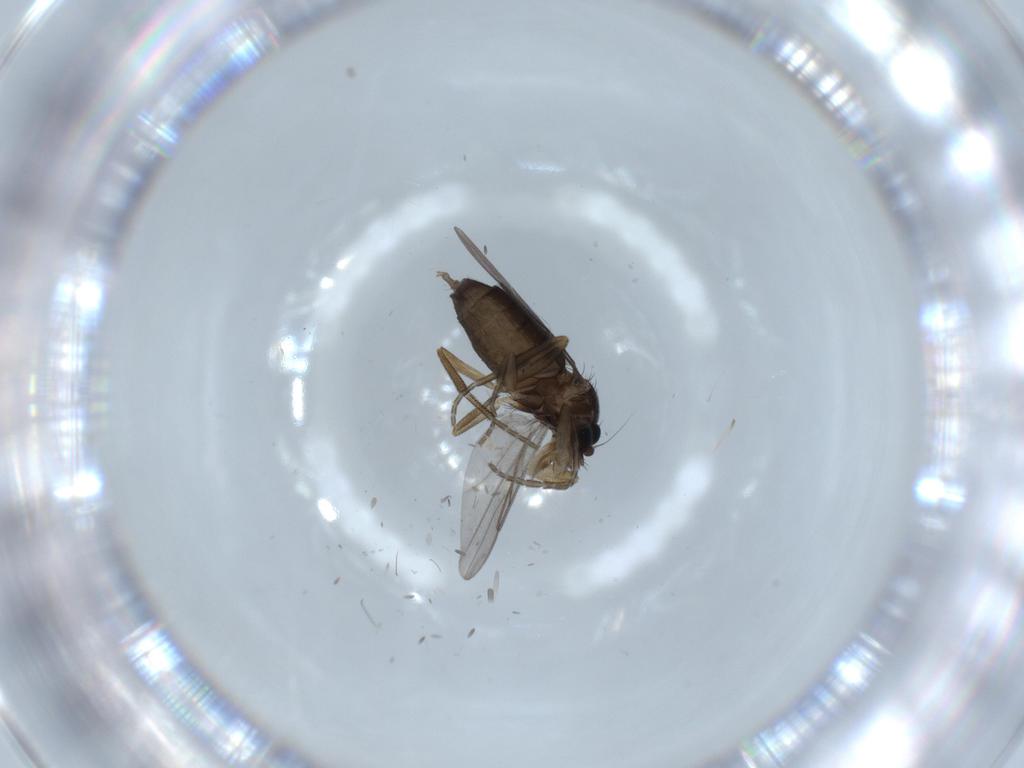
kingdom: Animalia
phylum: Arthropoda
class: Insecta
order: Diptera
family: Chironomidae
